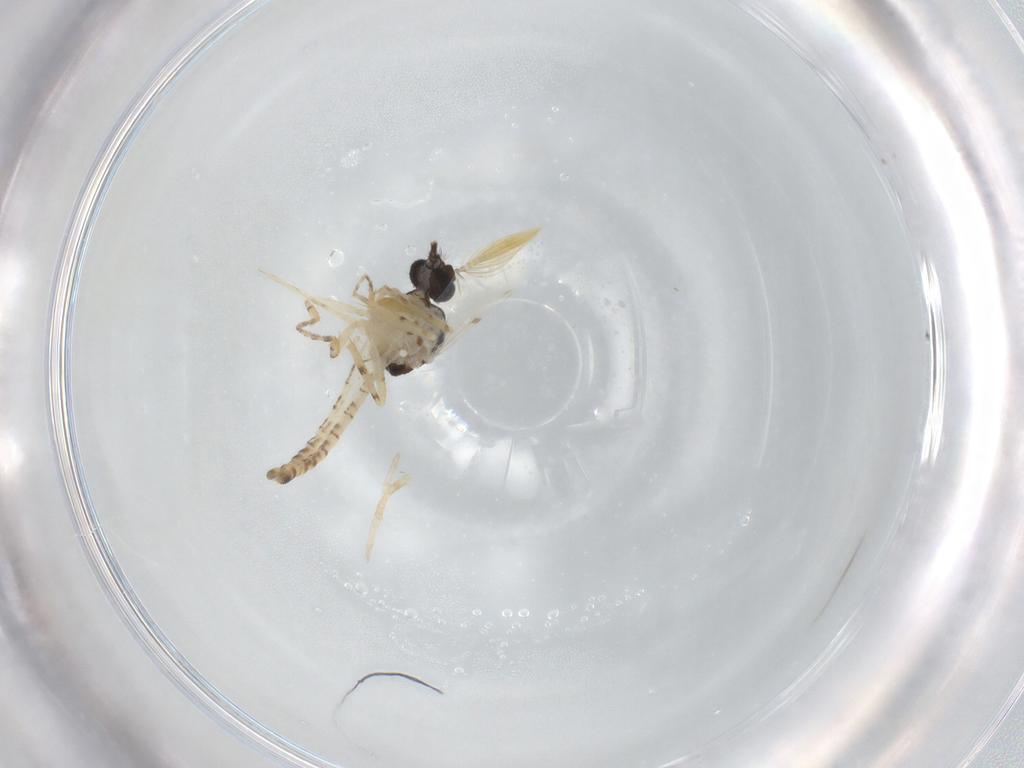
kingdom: Animalia
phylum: Arthropoda
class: Insecta
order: Diptera
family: Ceratopogonidae
